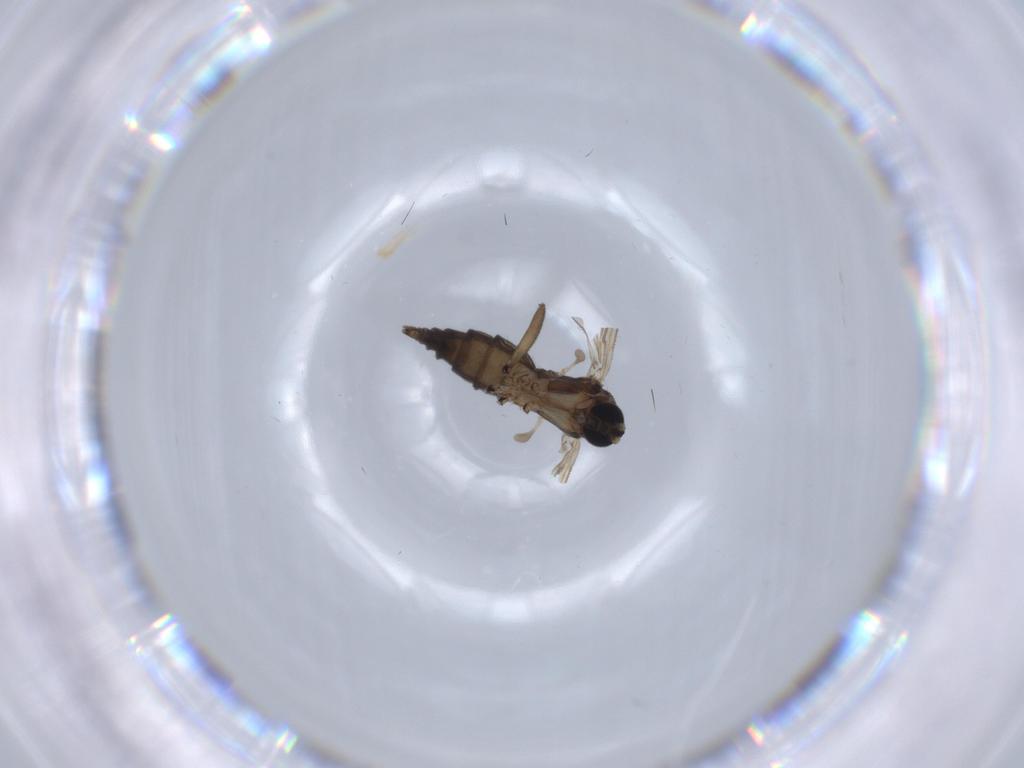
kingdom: Animalia
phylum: Arthropoda
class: Insecta
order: Diptera
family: Sciaridae
